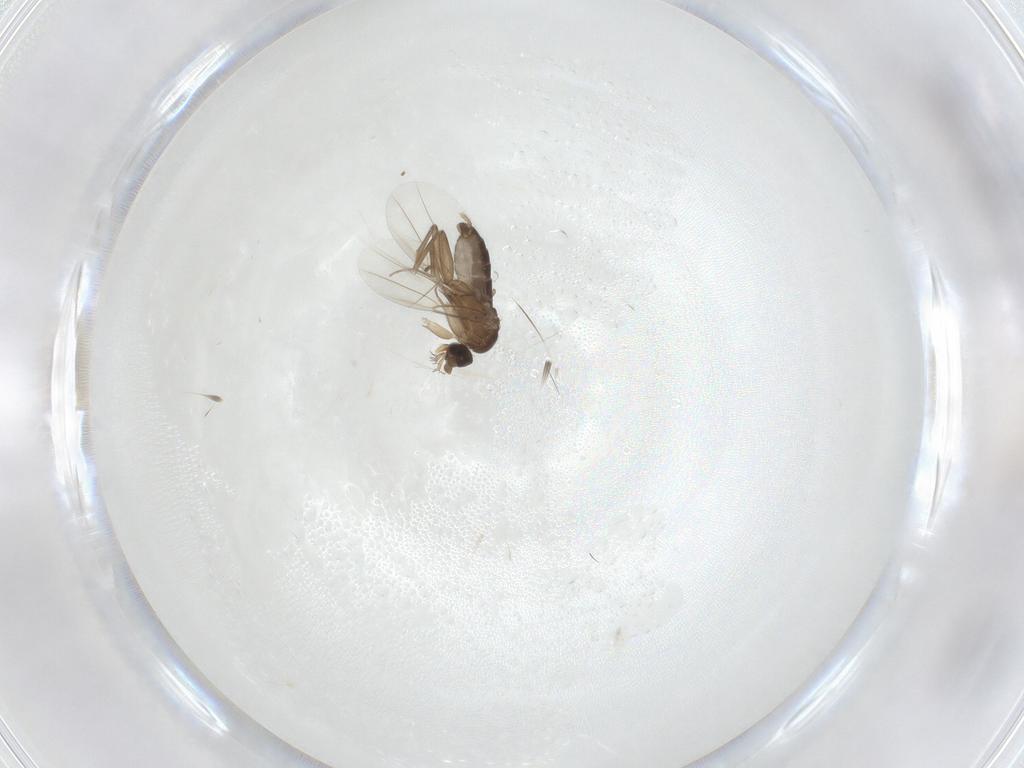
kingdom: Animalia
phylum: Arthropoda
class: Insecta
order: Diptera
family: Phoridae
